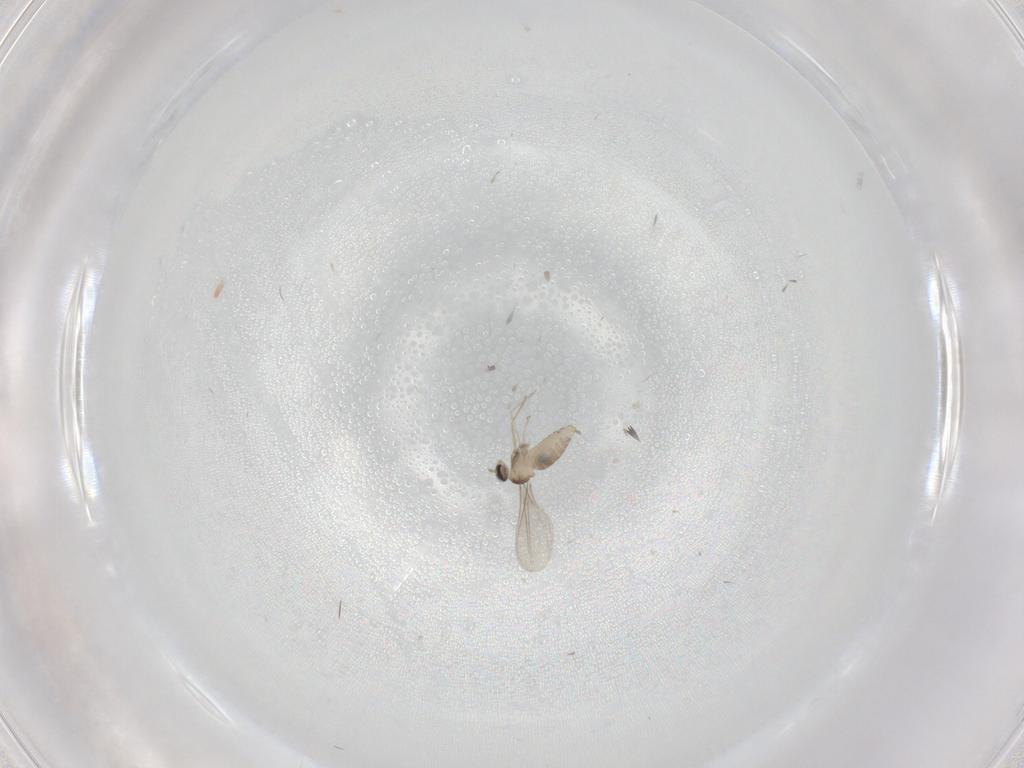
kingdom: Animalia
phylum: Arthropoda
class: Insecta
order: Diptera
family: Cecidomyiidae
